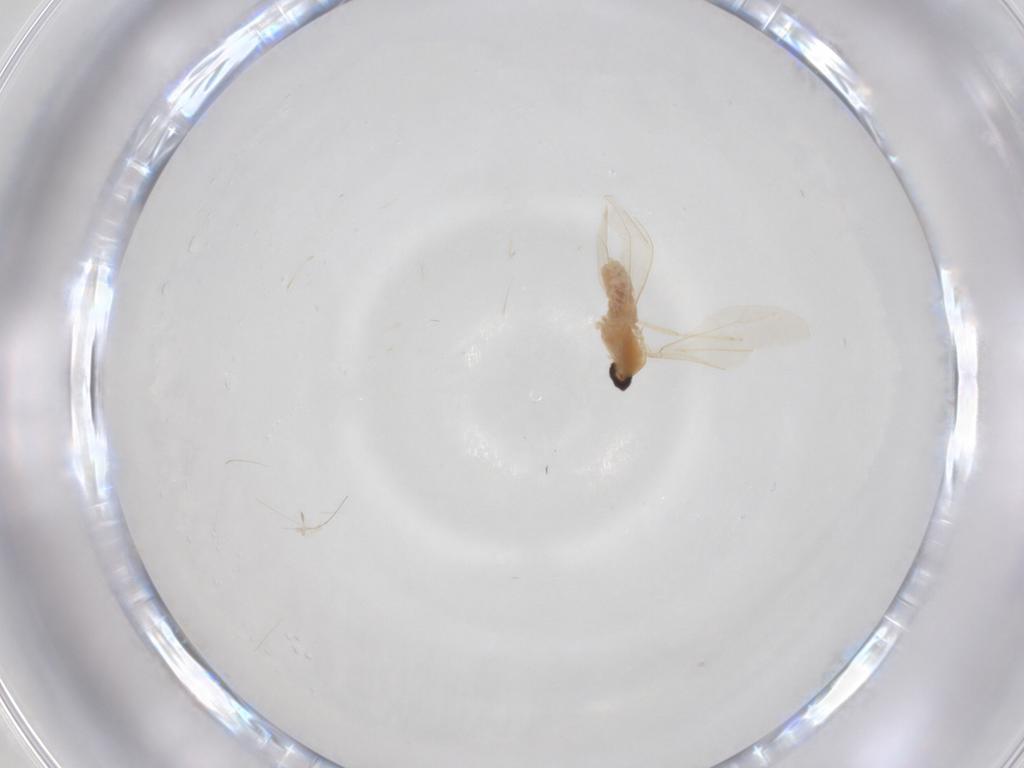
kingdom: Animalia
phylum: Arthropoda
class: Insecta
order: Diptera
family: Cecidomyiidae
